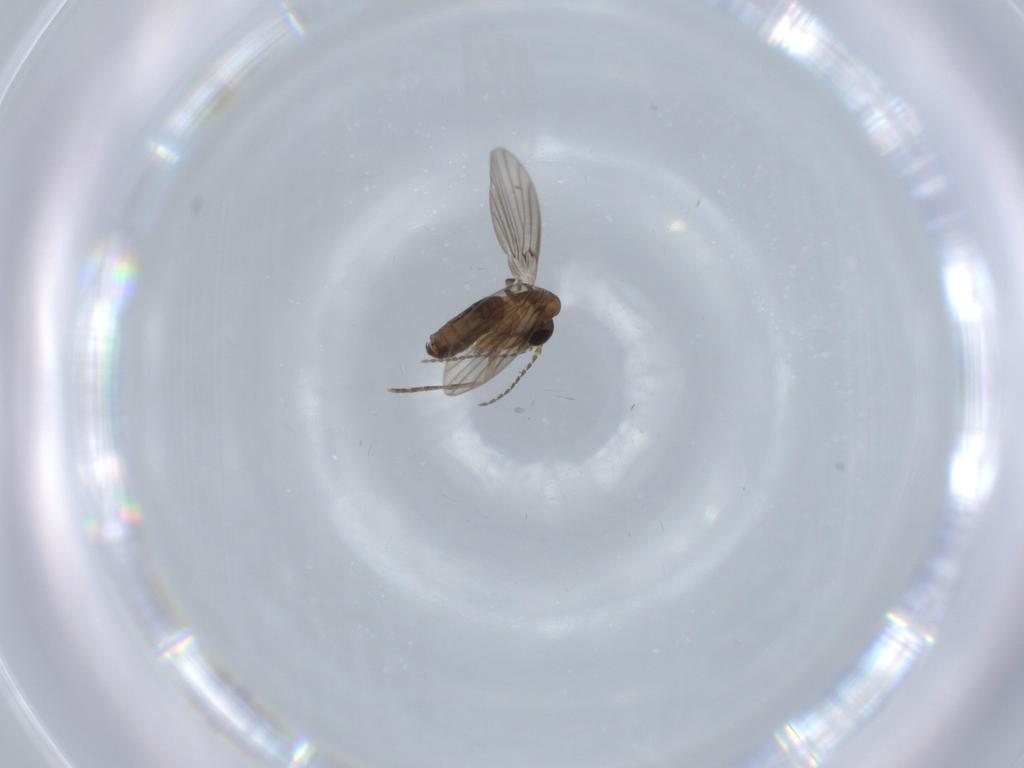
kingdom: Animalia
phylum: Arthropoda
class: Insecta
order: Diptera
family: Psychodidae
